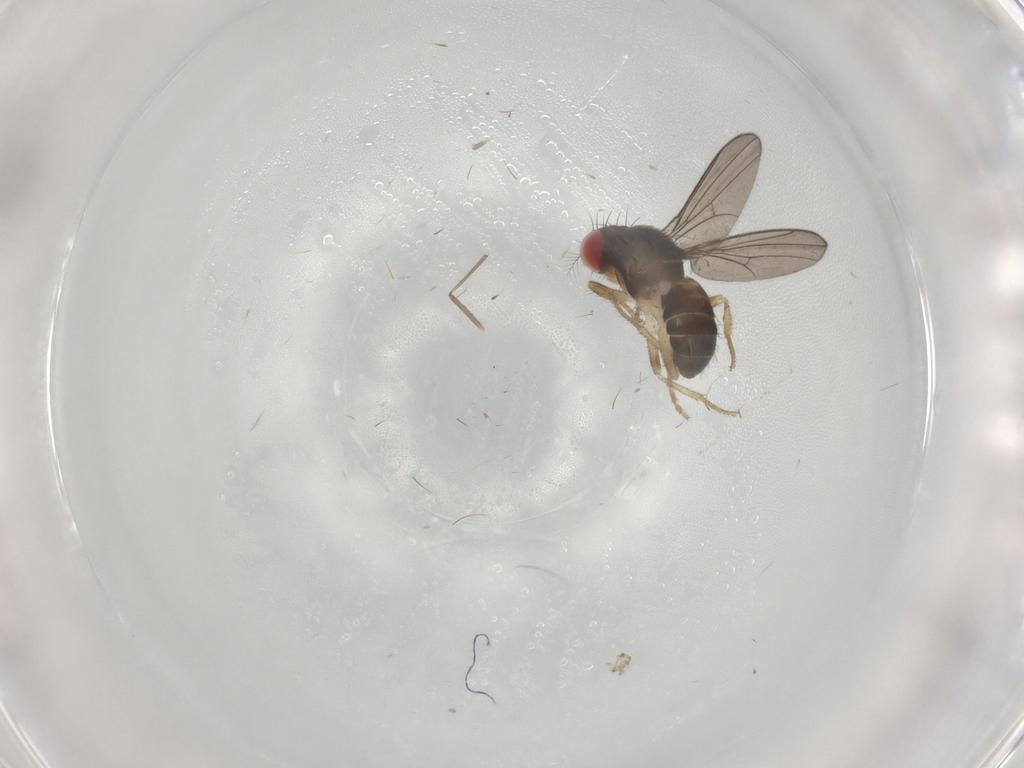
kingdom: Animalia
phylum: Arthropoda
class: Insecta
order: Diptera
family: Drosophilidae
